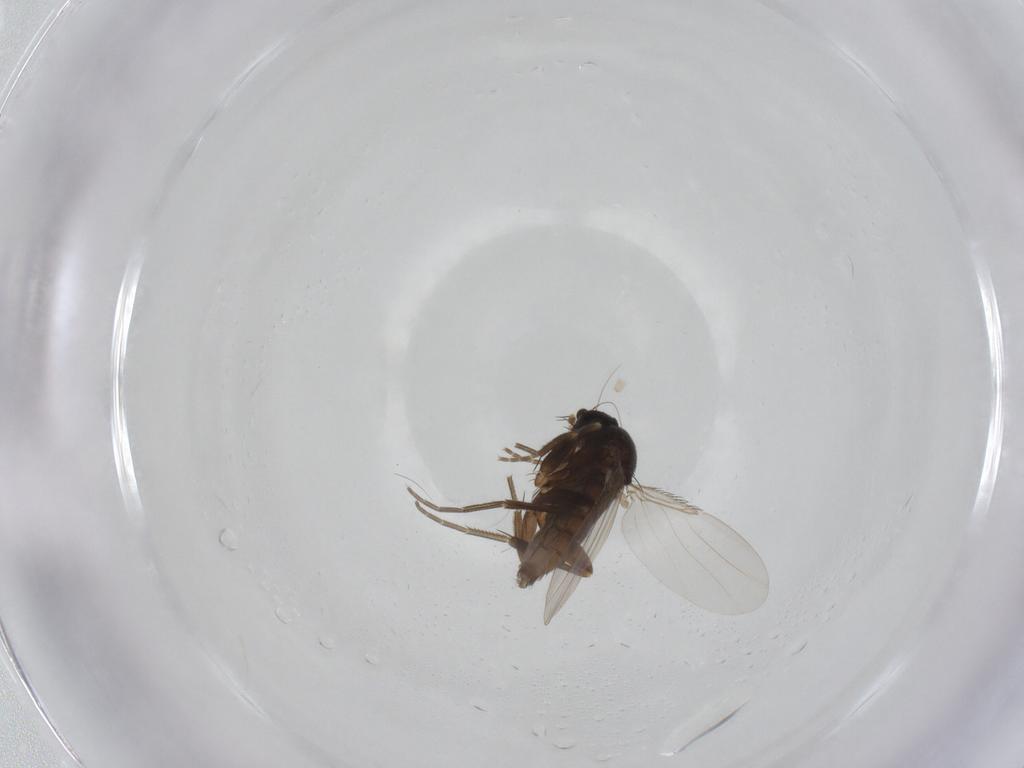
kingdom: Animalia
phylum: Arthropoda
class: Insecta
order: Diptera
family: Phoridae
